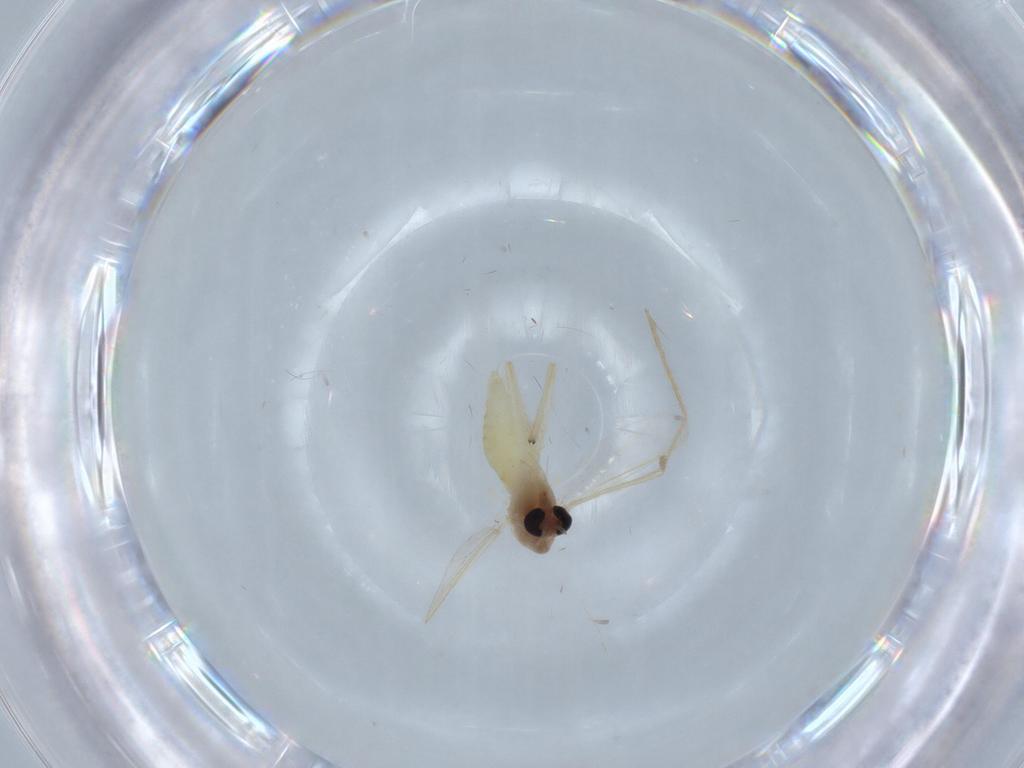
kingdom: Animalia
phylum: Arthropoda
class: Insecta
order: Diptera
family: Chironomidae
